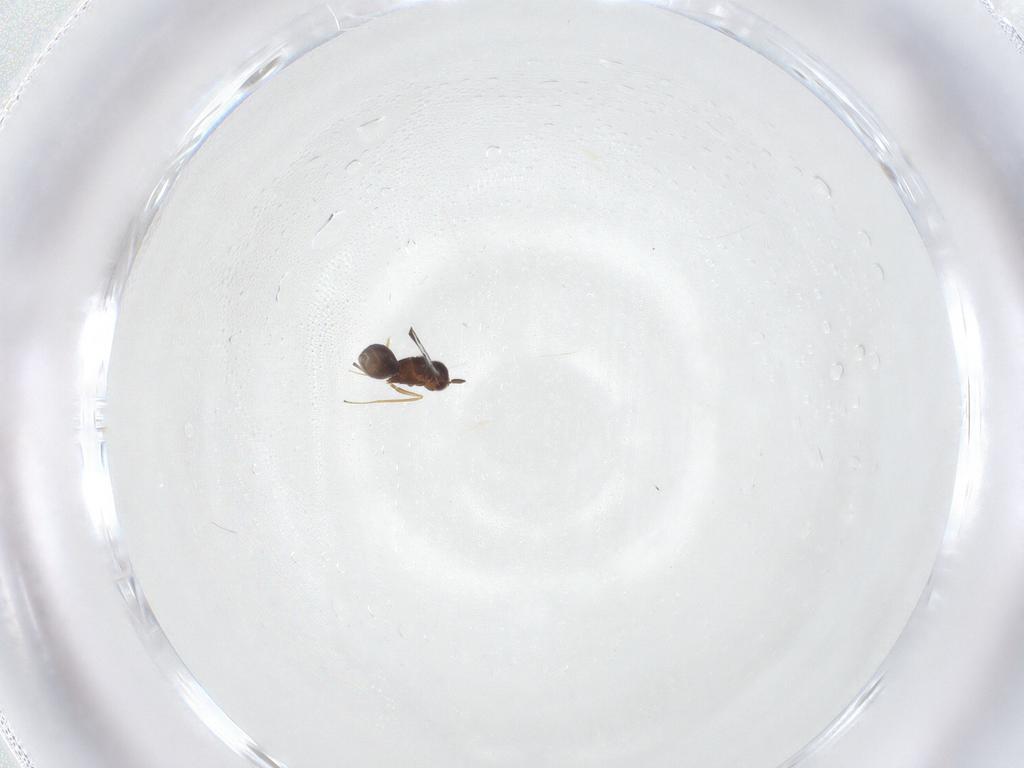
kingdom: Animalia
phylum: Arthropoda
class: Insecta
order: Hymenoptera
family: Mymaridae
